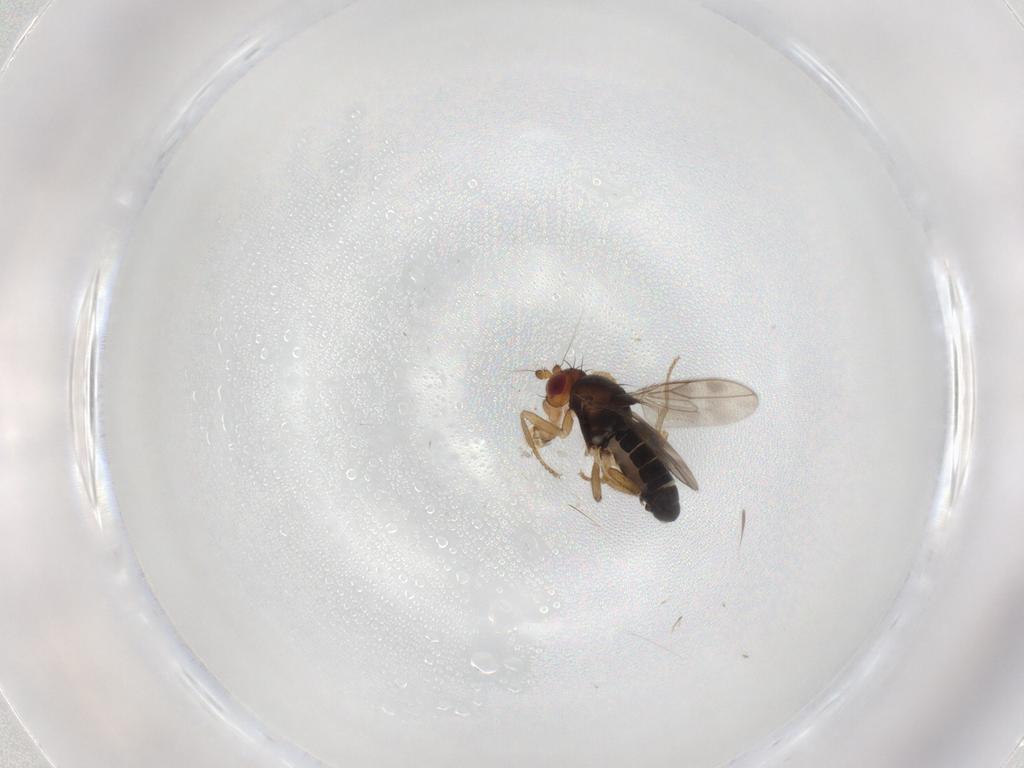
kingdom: Animalia
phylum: Arthropoda
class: Insecta
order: Diptera
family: Sphaeroceridae
